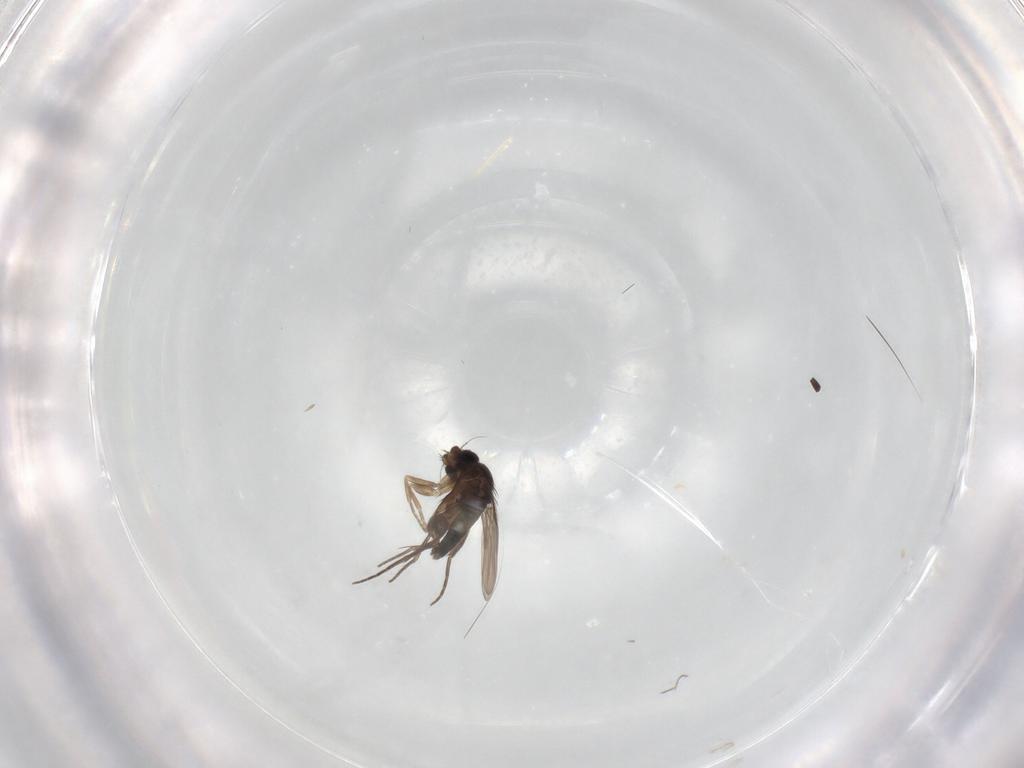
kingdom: Animalia
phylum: Arthropoda
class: Insecta
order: Diptera
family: Phoridae
